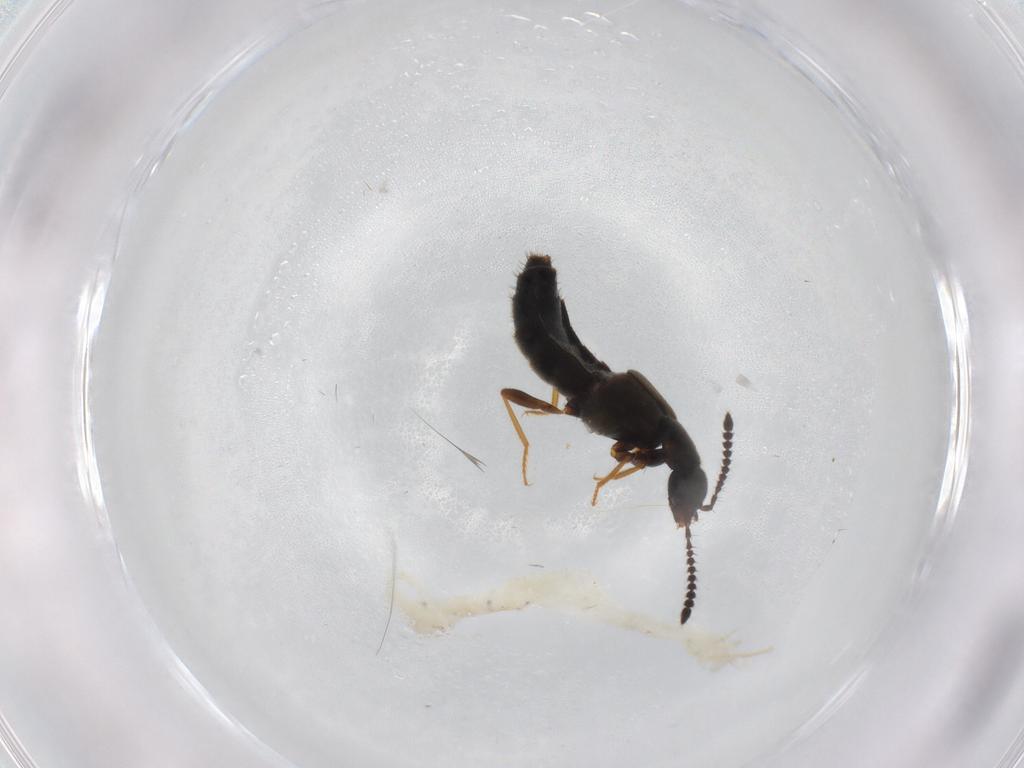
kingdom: Animalia
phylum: Arthropoda
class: Insecta
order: Coleoptera
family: Staphylinidae
